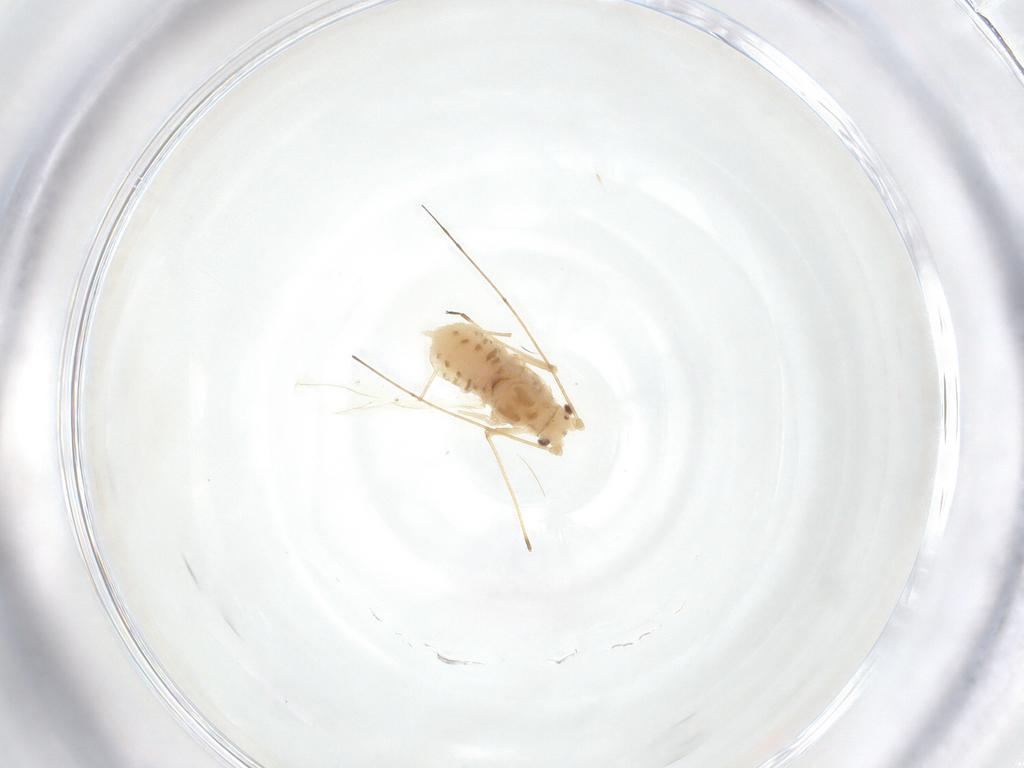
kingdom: Animalia
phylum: Arthropoda
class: Insecta
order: Hemiptera
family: Aphididae
